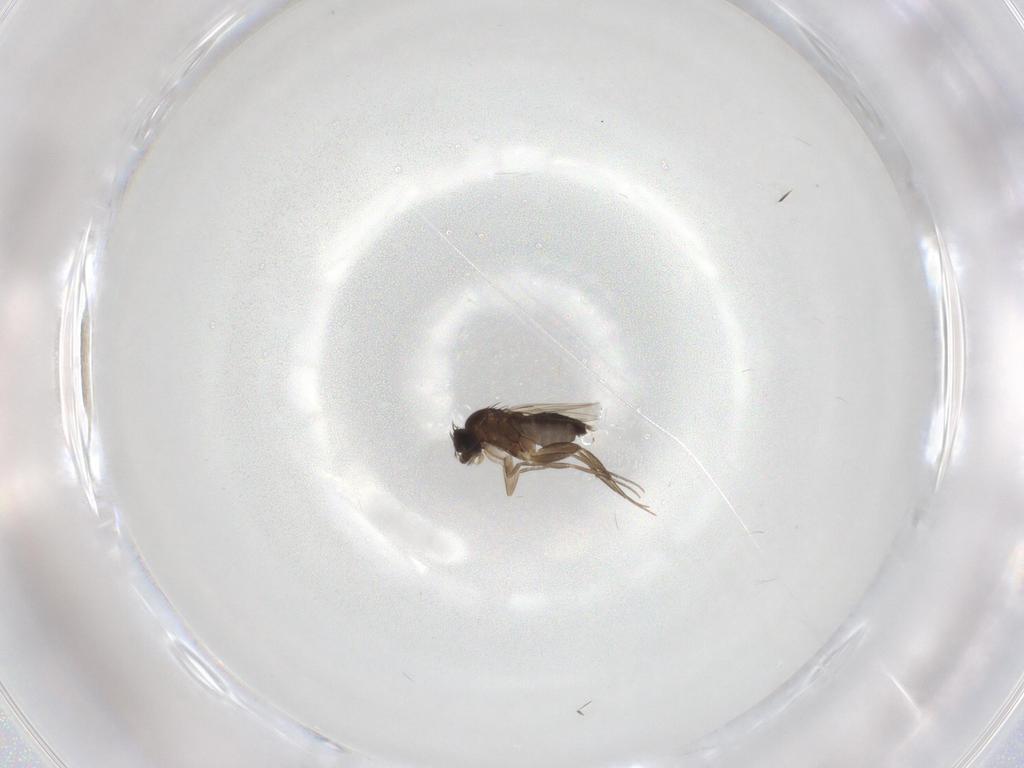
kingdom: Animalia
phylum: Arthropoda
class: Insecta
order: Diptera
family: Phoridae
